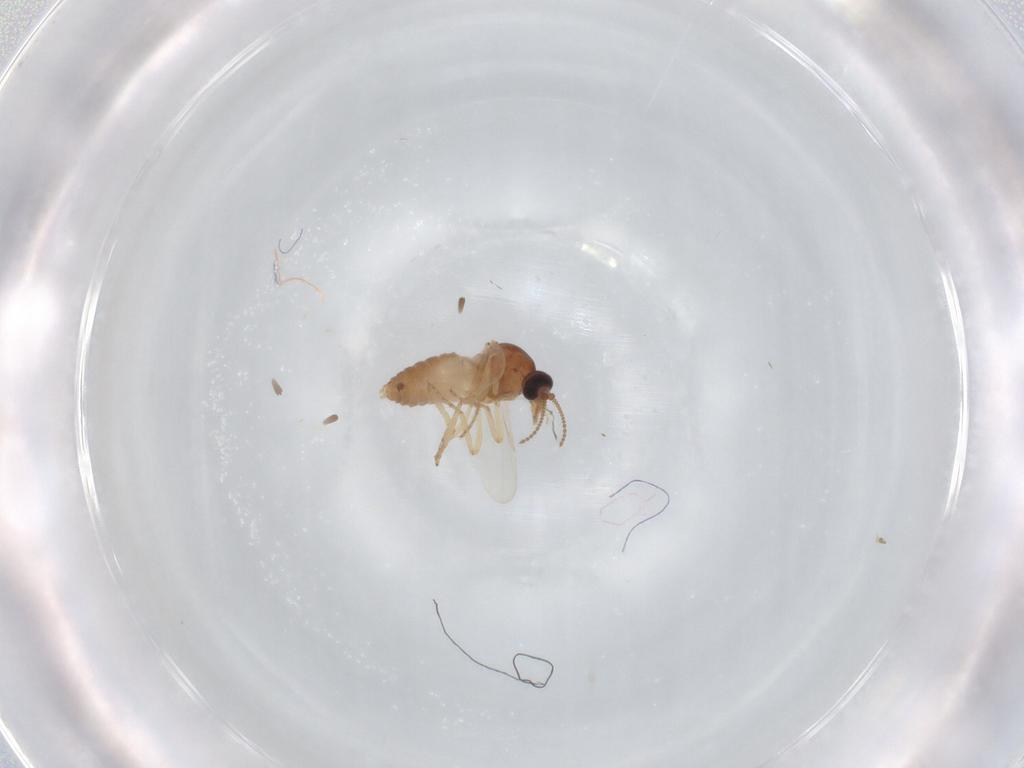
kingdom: Animalia
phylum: Arthropoda
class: Insecta
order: Diptera
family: Ceratopogonidae
